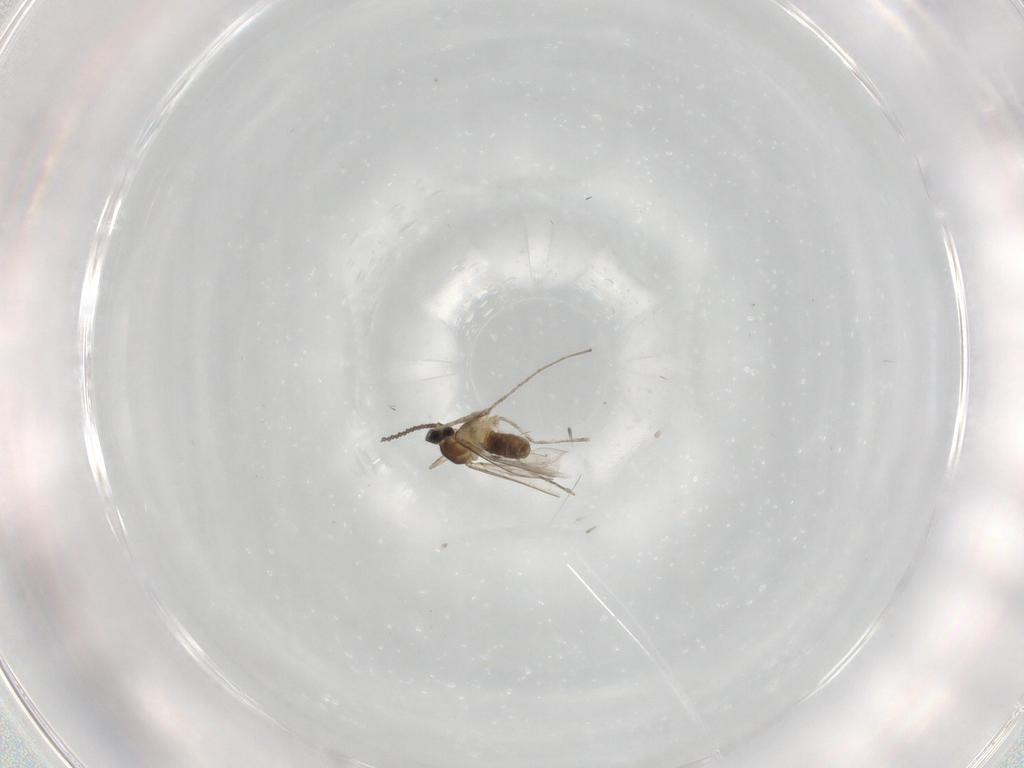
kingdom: Animalia
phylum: Arthropoda
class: Insecta
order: Diptera
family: Cecidomyiidae
